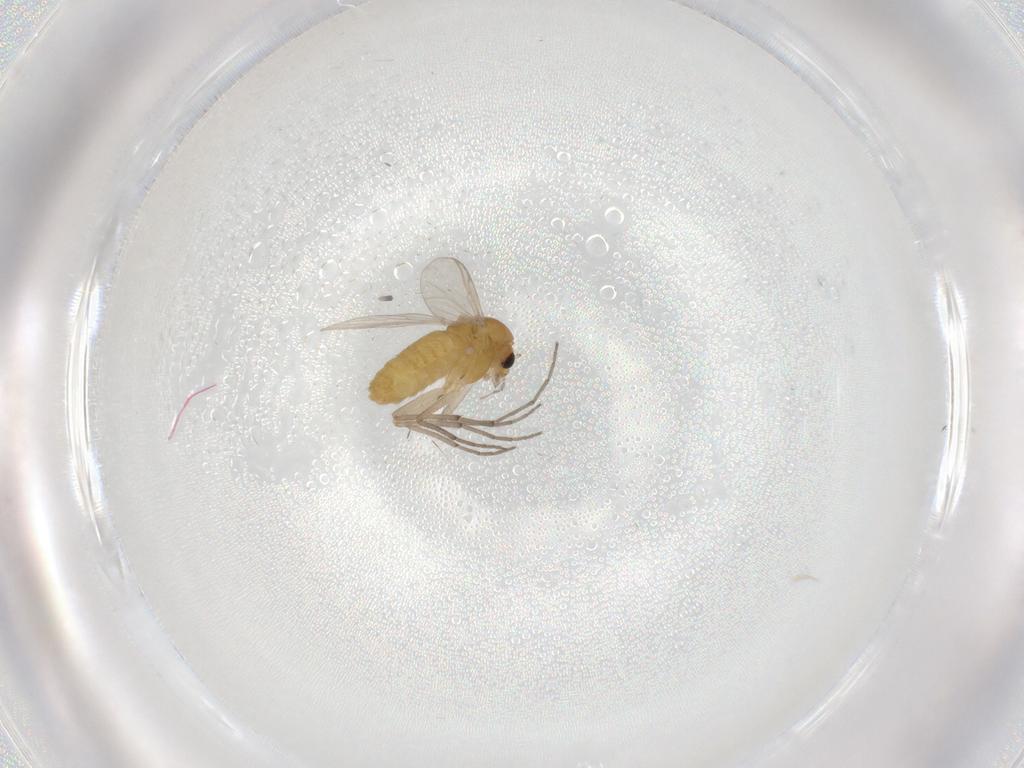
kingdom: Animalia
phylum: Arthropoda
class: Insecta
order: Diptera
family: Chironomidae
